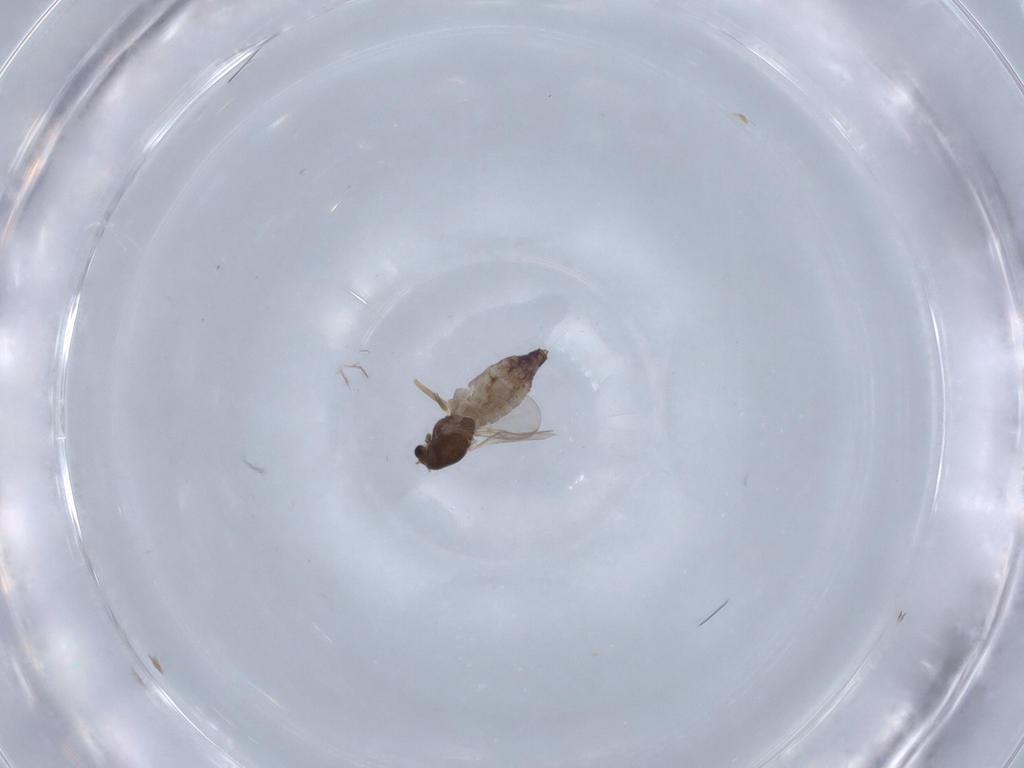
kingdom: Animalia
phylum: Arthropoda
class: Insecta
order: Diptera
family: Chironomidae
